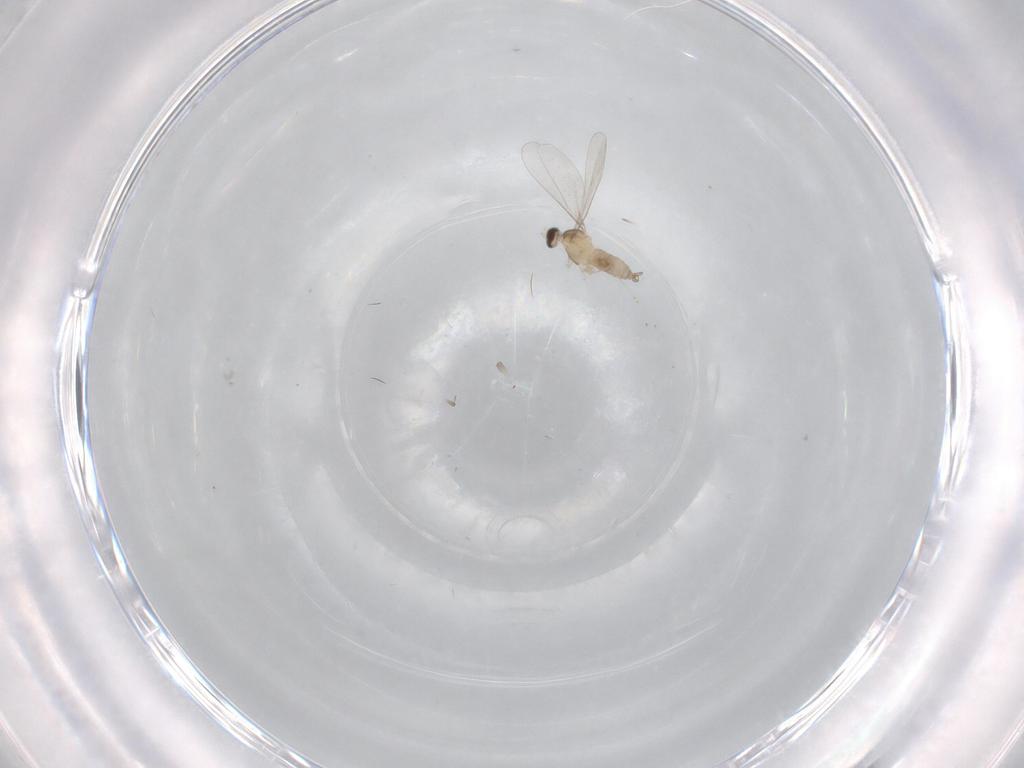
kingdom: Animalia
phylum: Arthropoda
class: Insecta
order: Diptera
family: Cecidomyiidae
